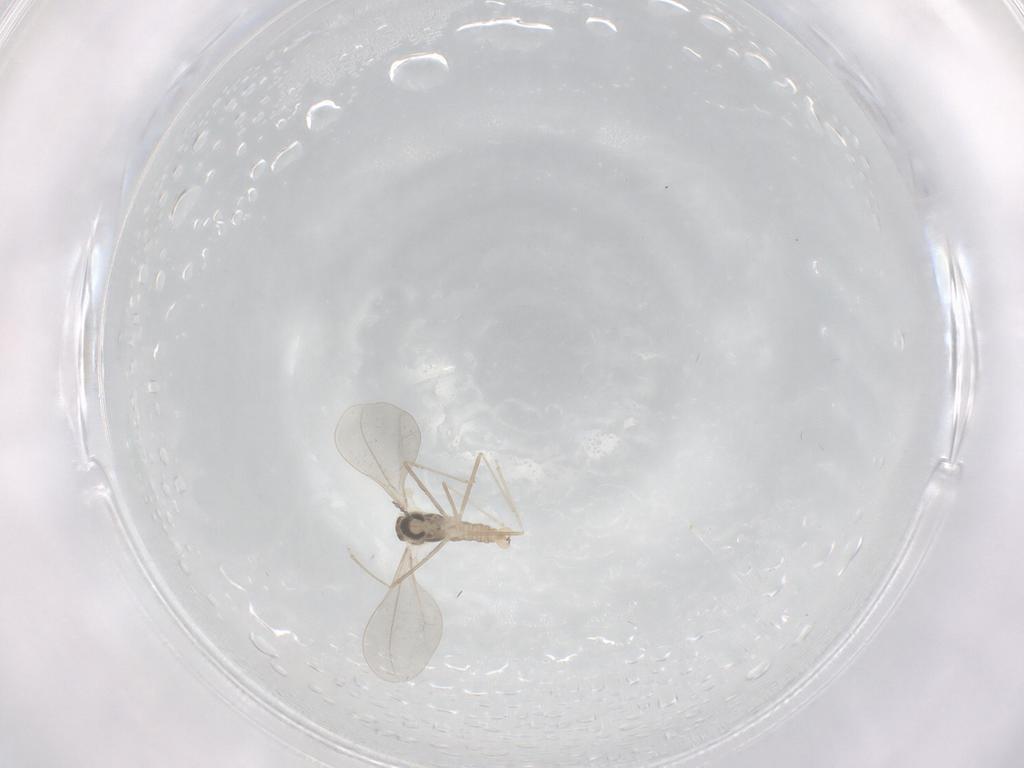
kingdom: Animalia
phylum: Arthropoda
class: Insecta
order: Diptera
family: Cecidomyiidae
